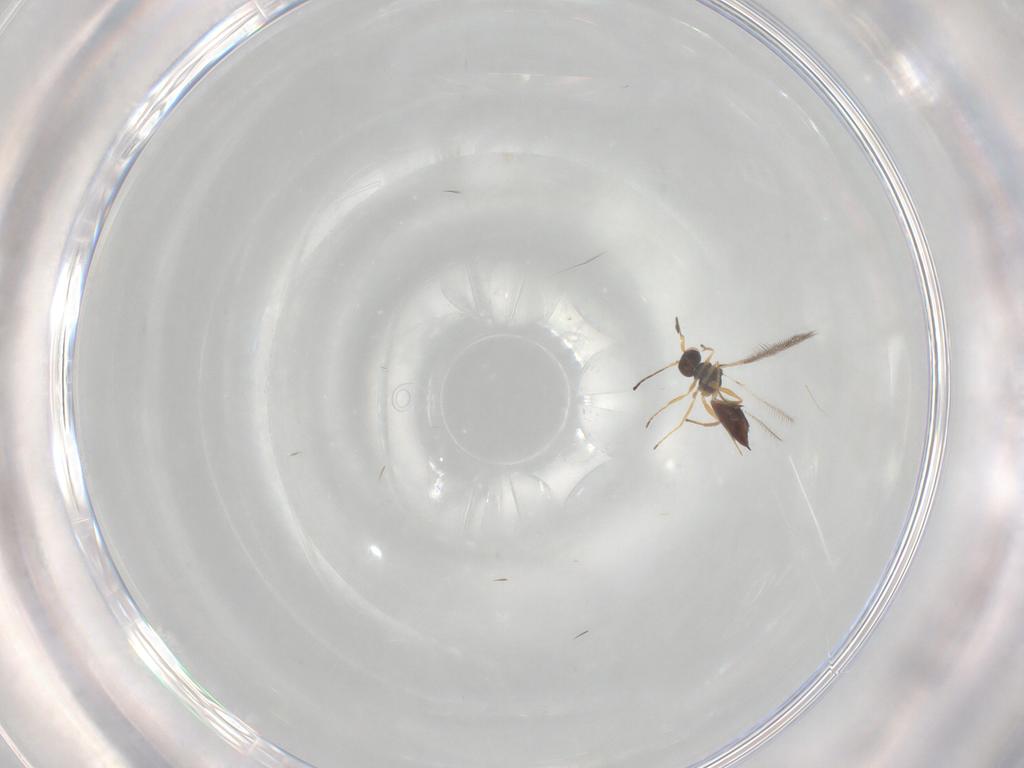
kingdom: Animalia
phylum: Arthropoda
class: Insecta
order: Hymenoptera
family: Mymaridae
